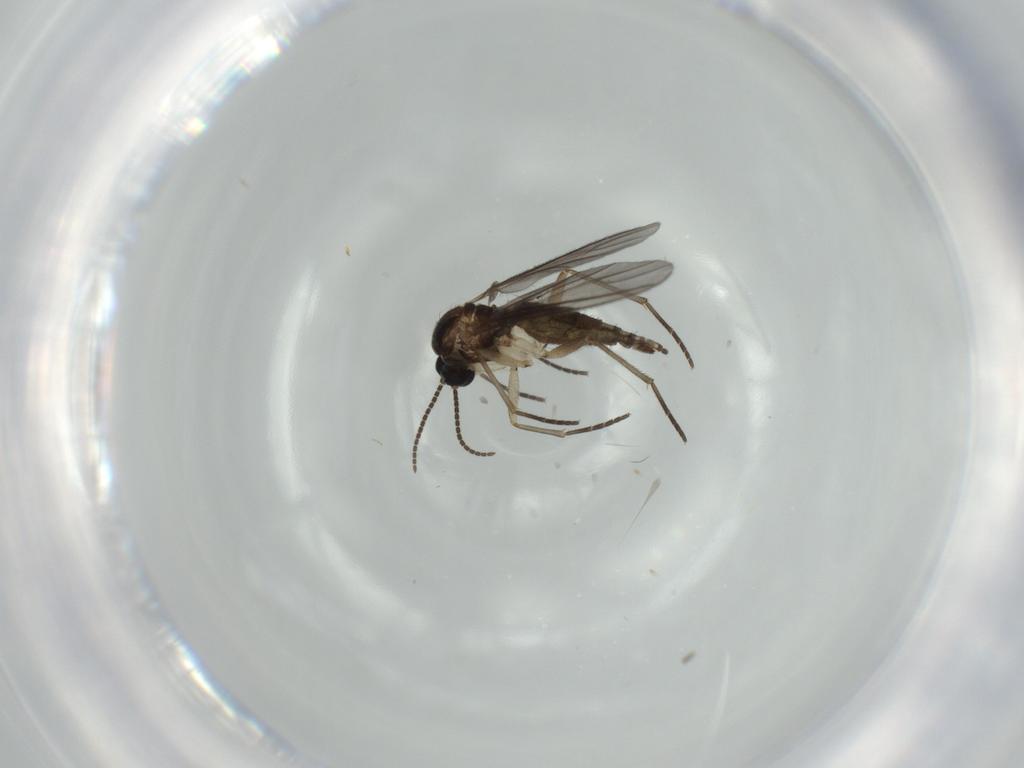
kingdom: Animalia
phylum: Arthropoda
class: Insecta
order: Diptera
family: Sciaridae
